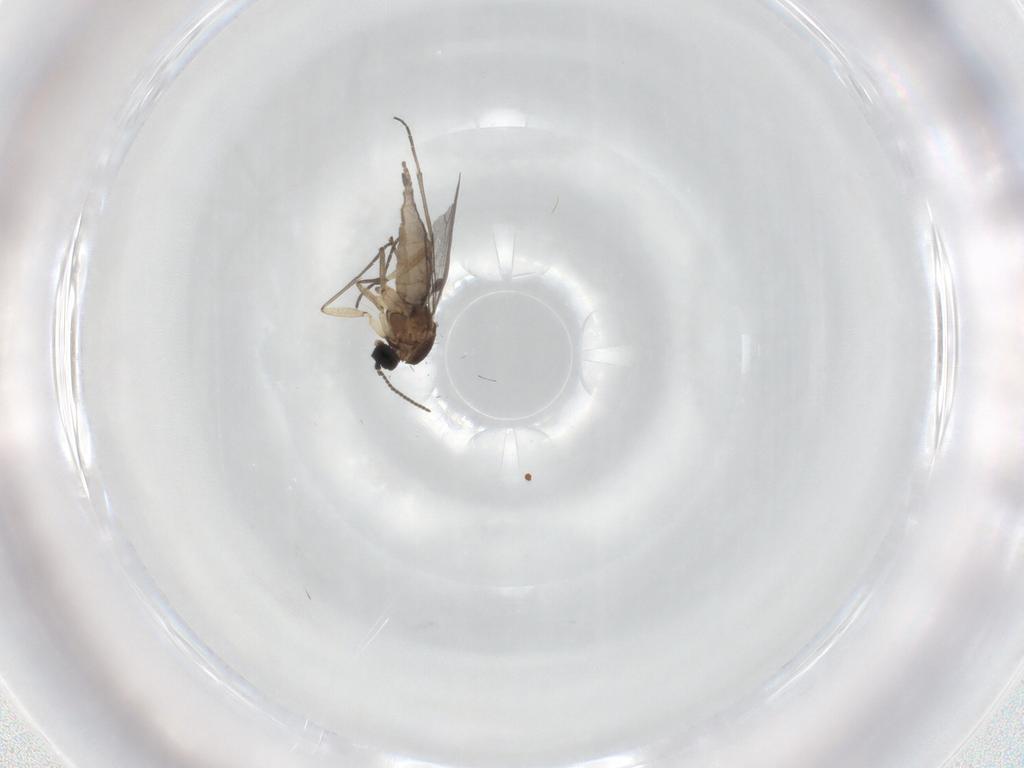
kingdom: Animalia
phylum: Arthropoda
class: Insecta
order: Diptera
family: Sciaridae
